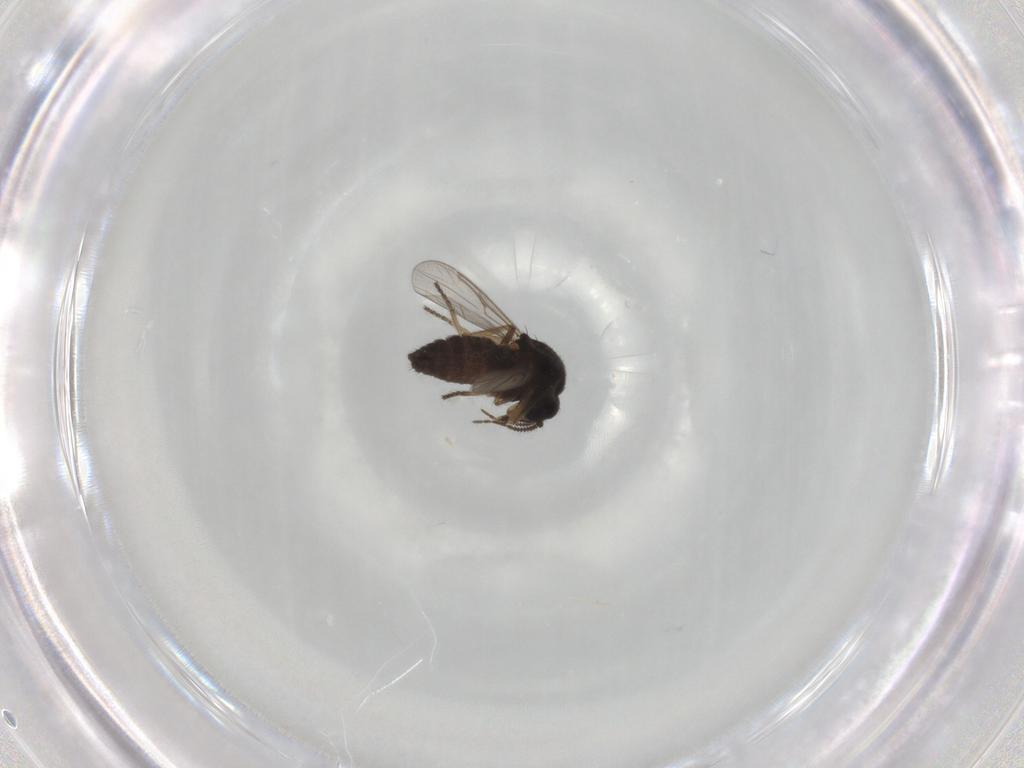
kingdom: Animalia
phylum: Arthropoda
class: Insecta
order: Diptera
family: Ceratopogonidae
